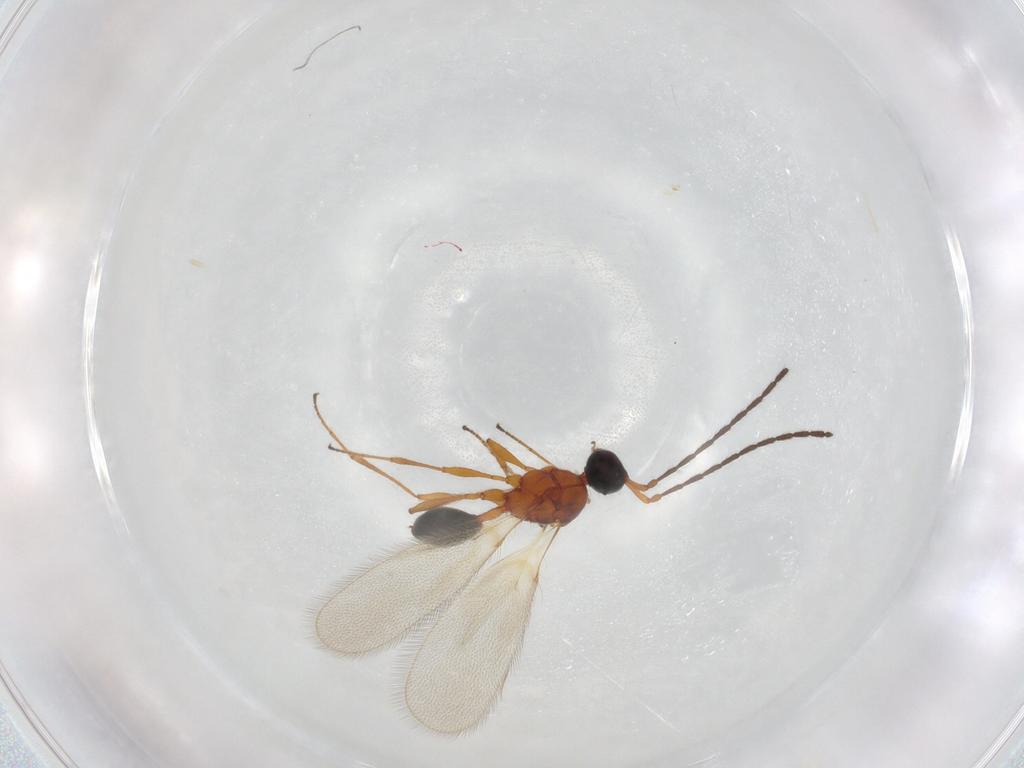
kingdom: Animalia
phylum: Arthropoda
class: Insecta
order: Hymenoptera
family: Diapriidae
